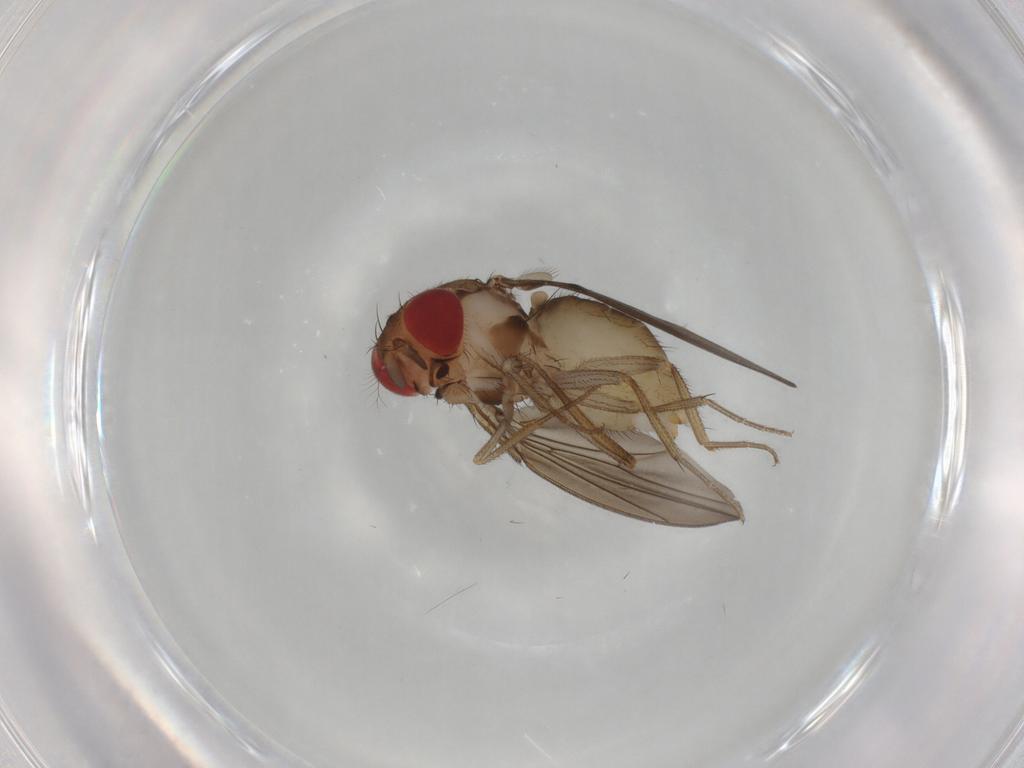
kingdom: Animalia
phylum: Arthropoda
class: Insecta
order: Diptera
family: Drosophilidae
